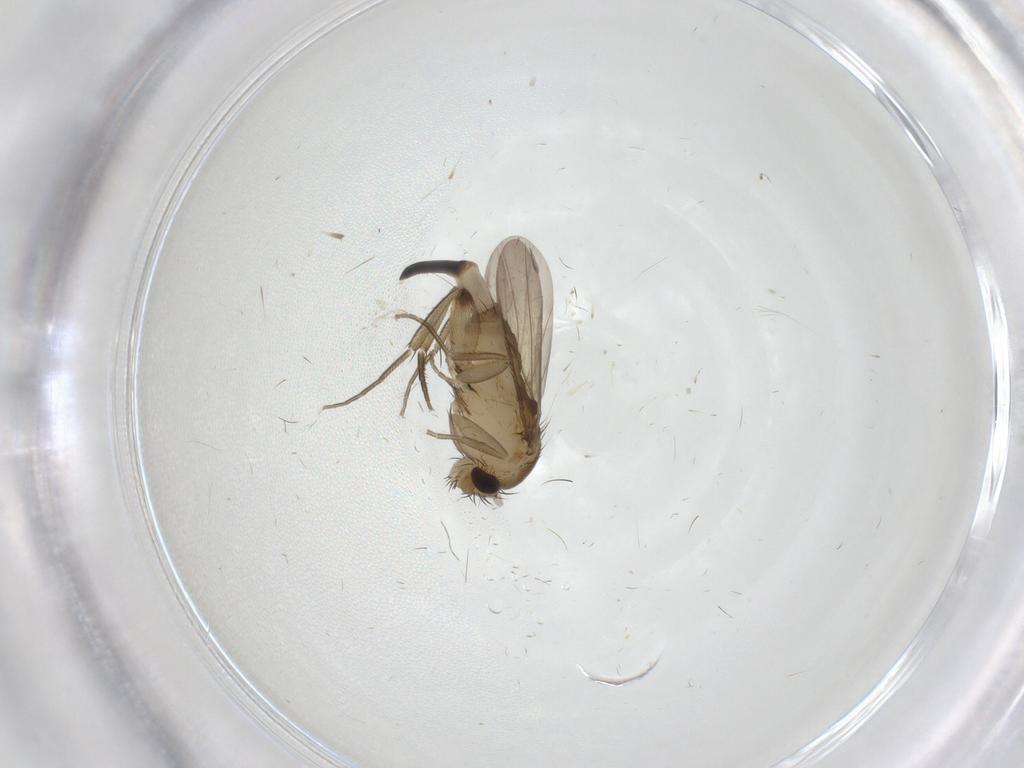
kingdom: Animalia
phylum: Arthropoda
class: Insecta
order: Diptera
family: Phoridae
